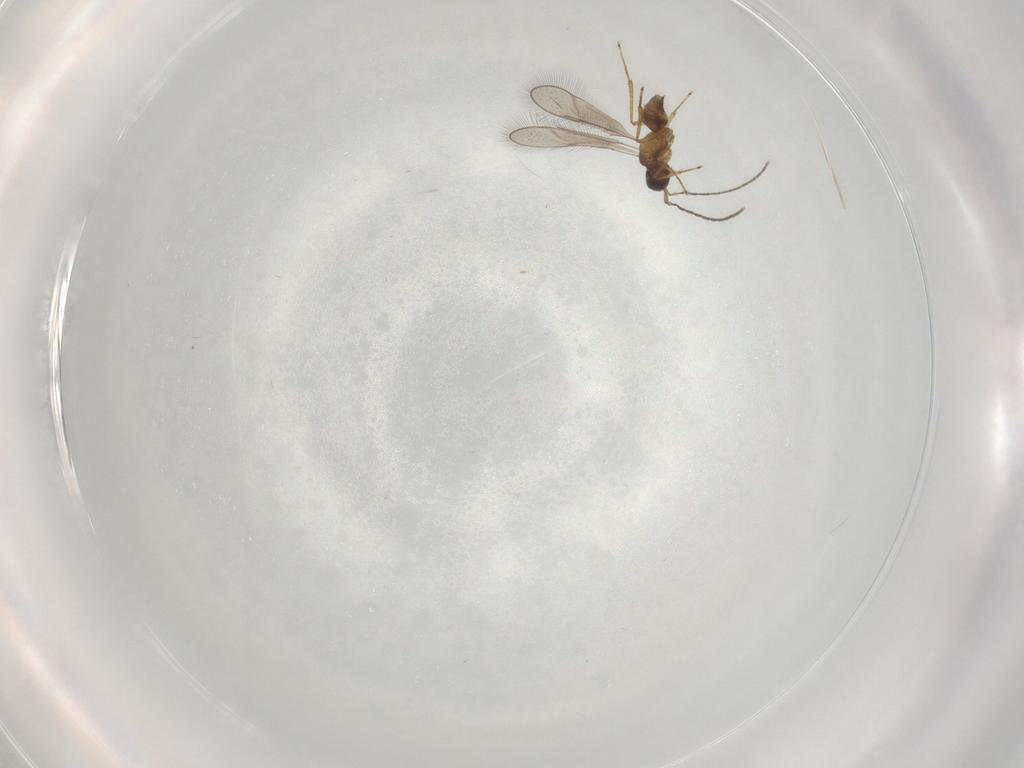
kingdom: Animalia
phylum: Arthropoda
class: Insecta
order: Hymenoptera
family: Mymaridae
